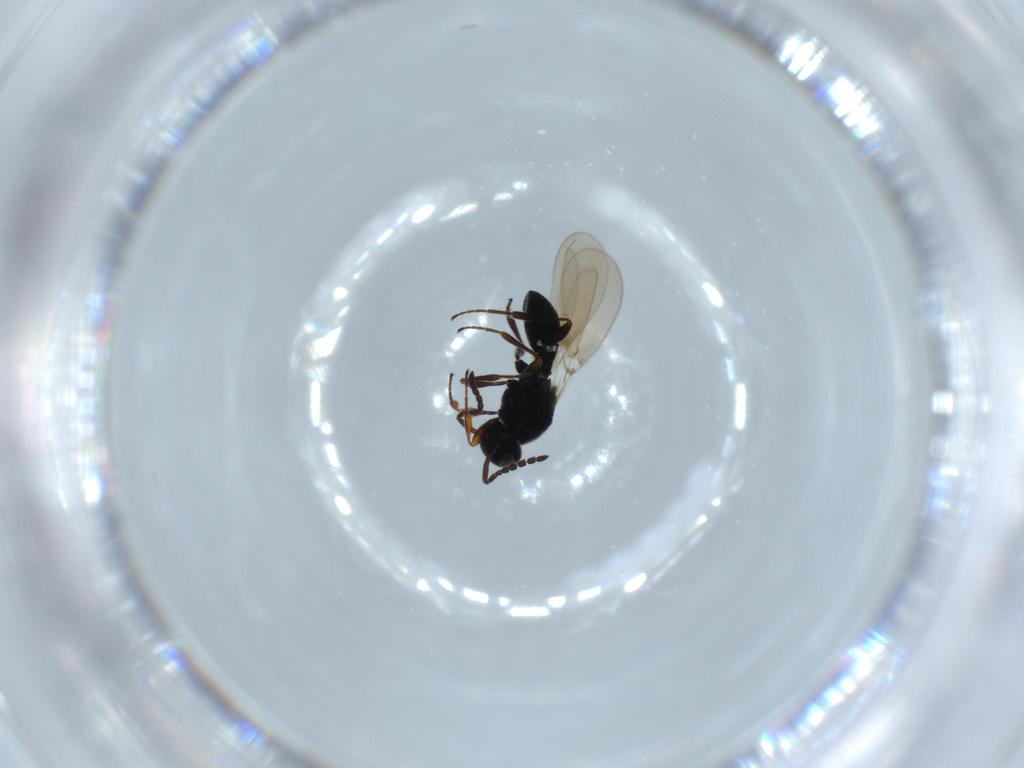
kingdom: Animalia
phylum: Arthropoda
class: Insecta
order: Hymenoptera
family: Platygastridae
